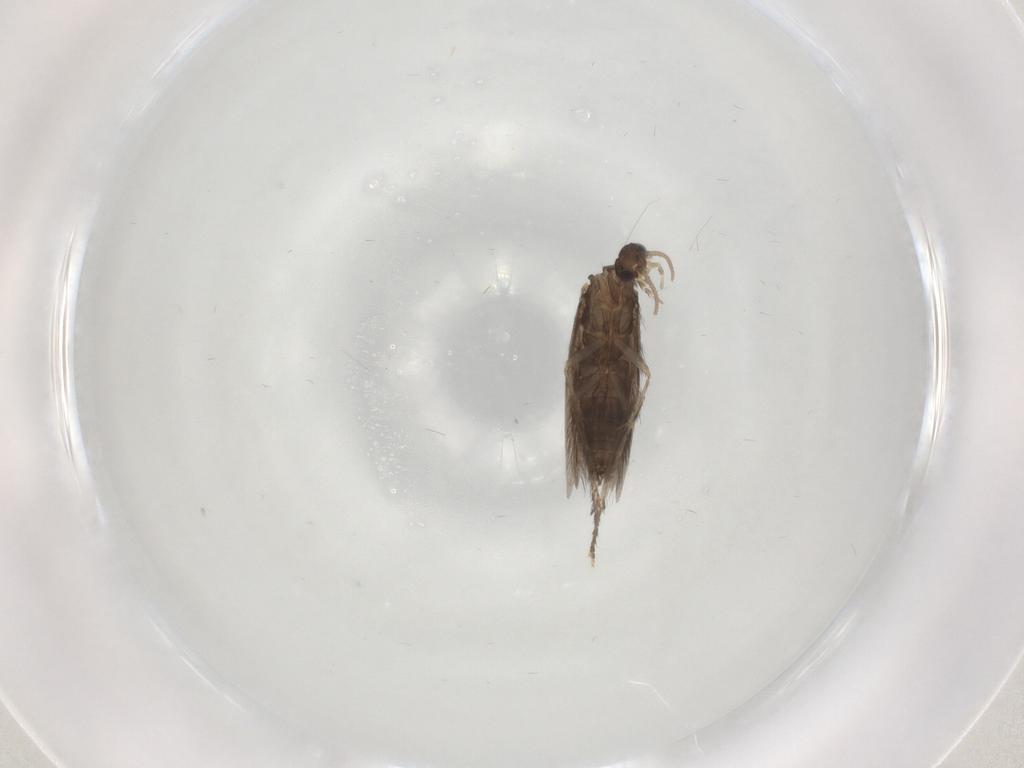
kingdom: Animalia
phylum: Arthropoda
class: Insecta
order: Trichoptera
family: Hydroptilidae
